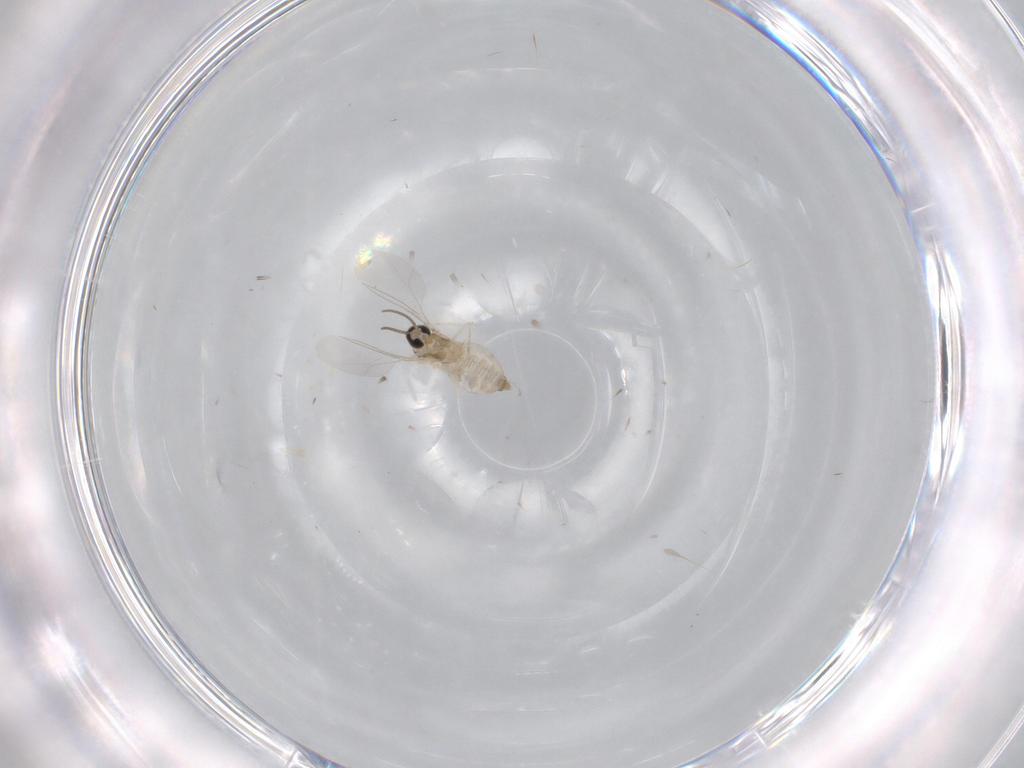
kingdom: Animalia
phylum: Arthropoda
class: Insecta
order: Diptera
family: Cecidomyiidae
